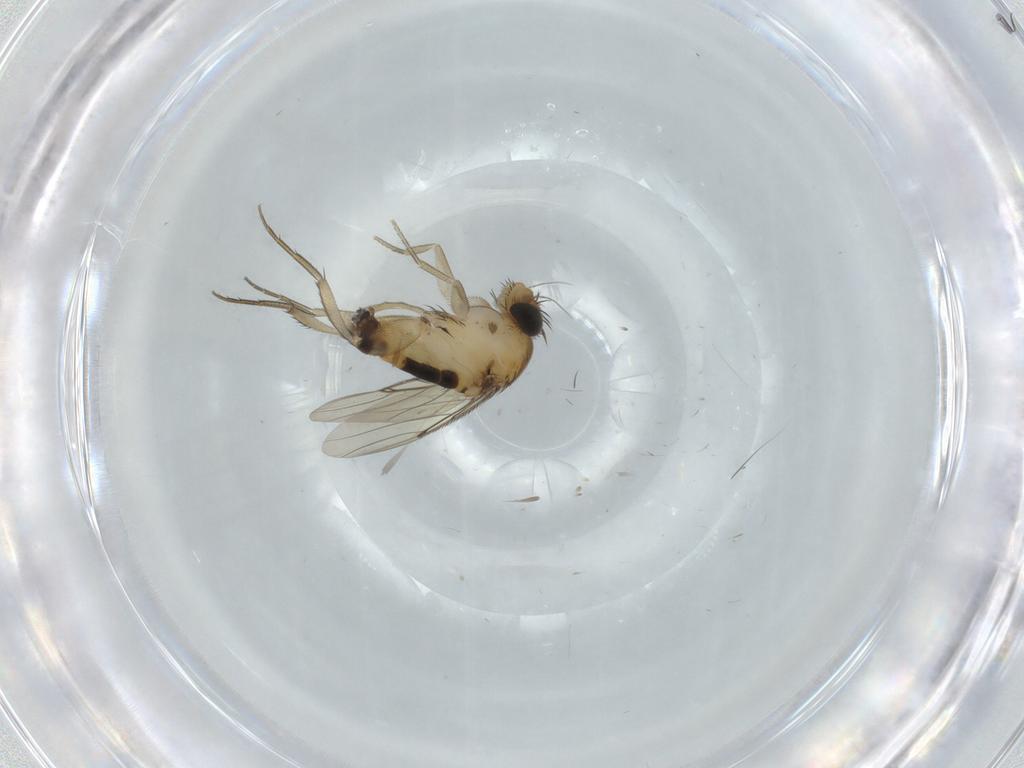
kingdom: Animalia
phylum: Arthropoda
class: Insecta
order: Diptera
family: Phoridae
